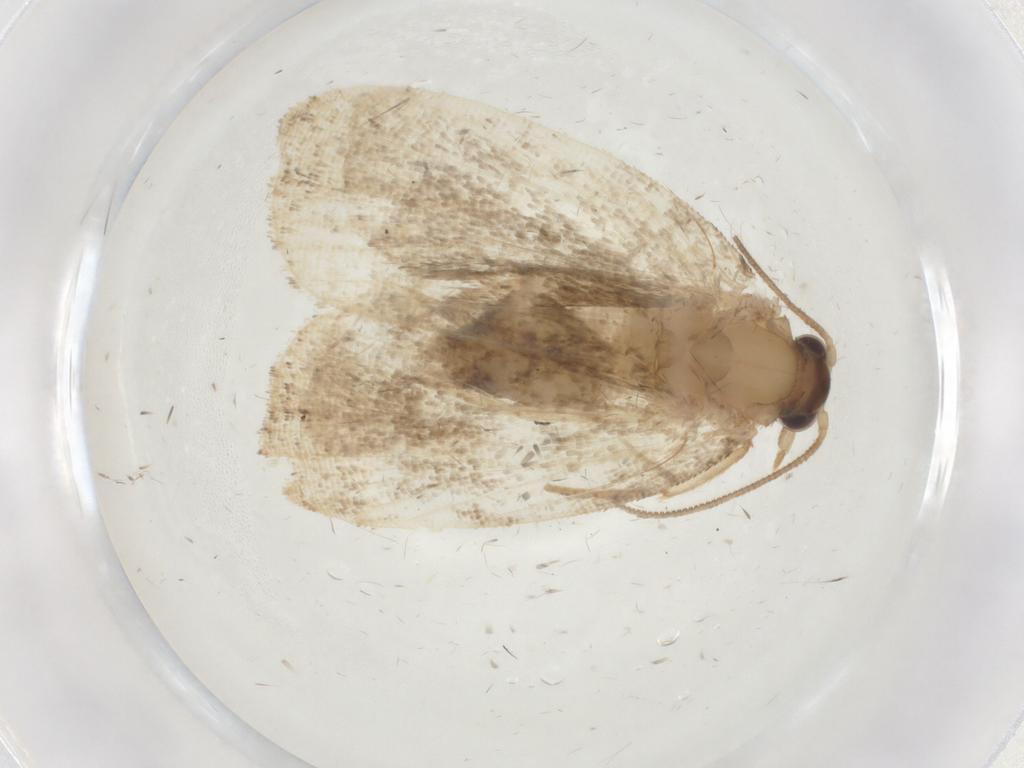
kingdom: Animalia
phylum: Arthropoda
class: Insecta
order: Lepidoptera
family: Tortricidae
